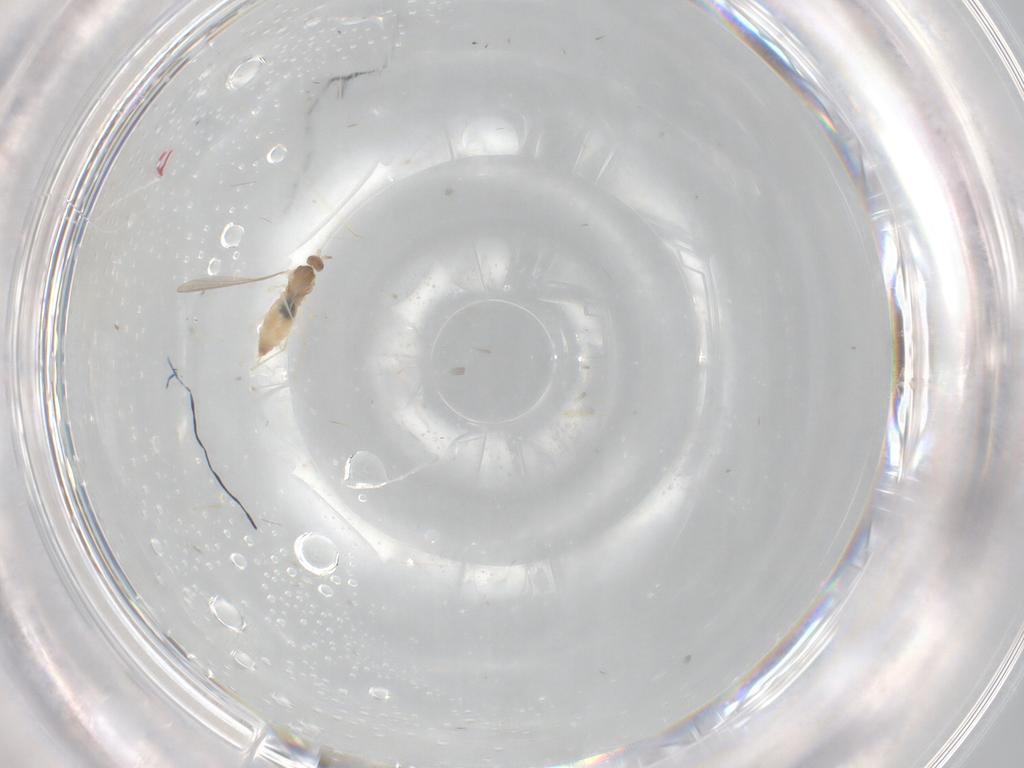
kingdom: Animalia
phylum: Arthropoda
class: Insecta
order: Diptera
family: Cecidomyiidae
